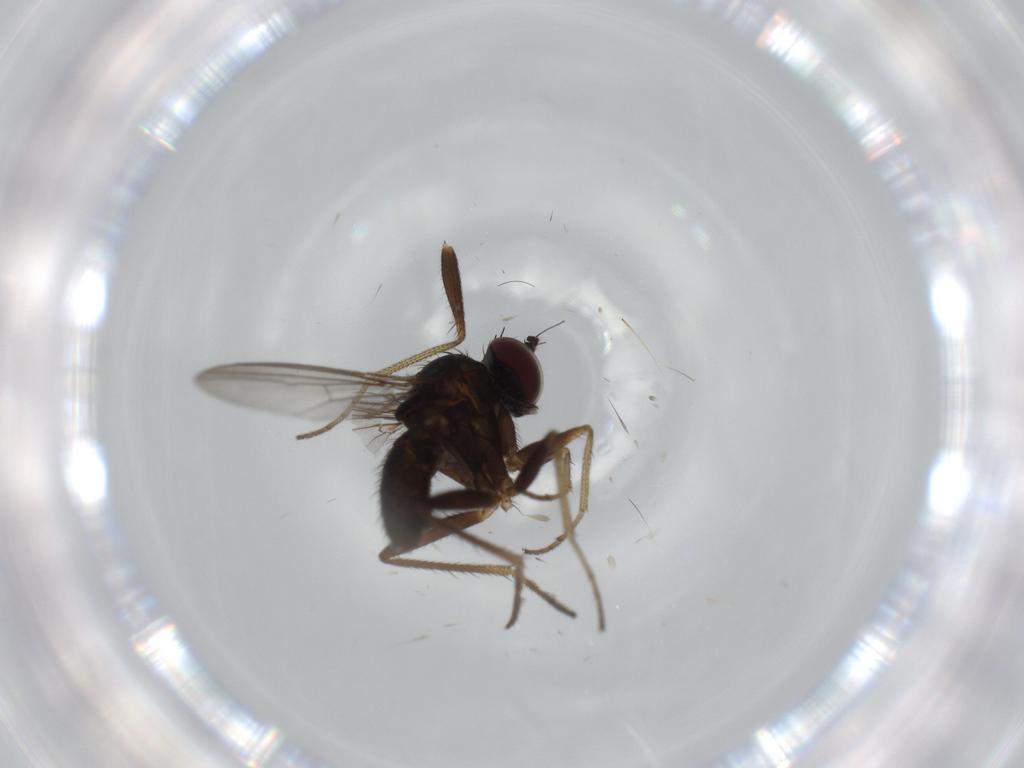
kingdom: Animalia
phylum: Arthropoda
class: Insecta
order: Diptera
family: Dolichopodidae
